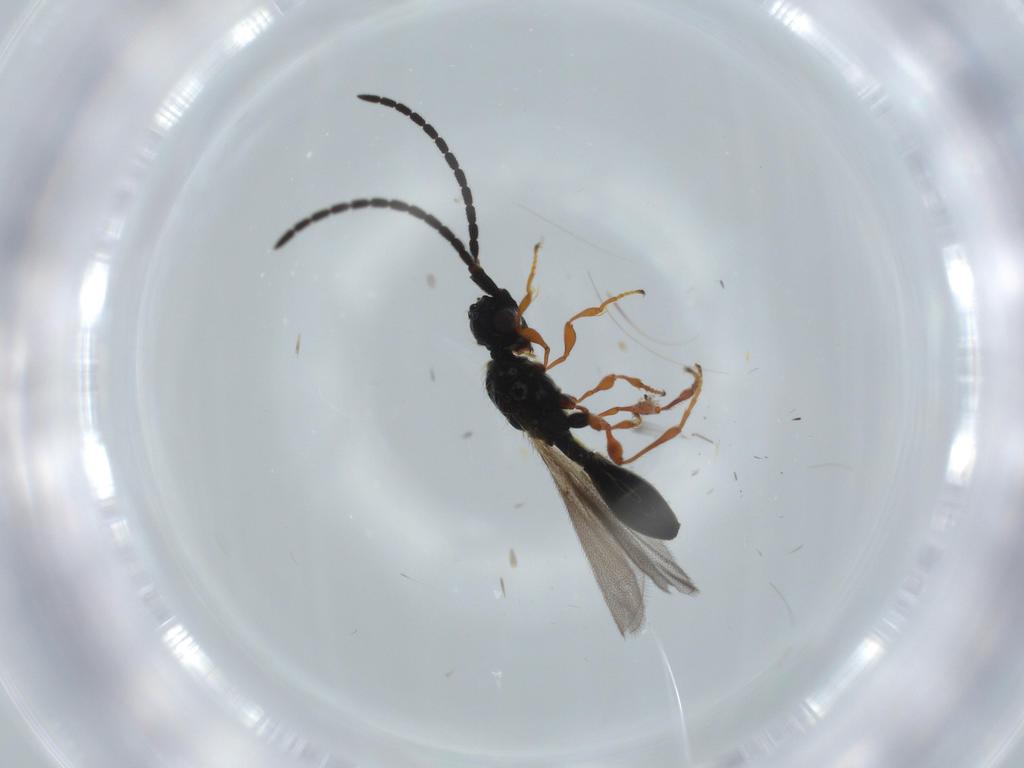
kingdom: Animalia
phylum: Arthropoda
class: Insecta
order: Hymenoptera
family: Diapriidae
